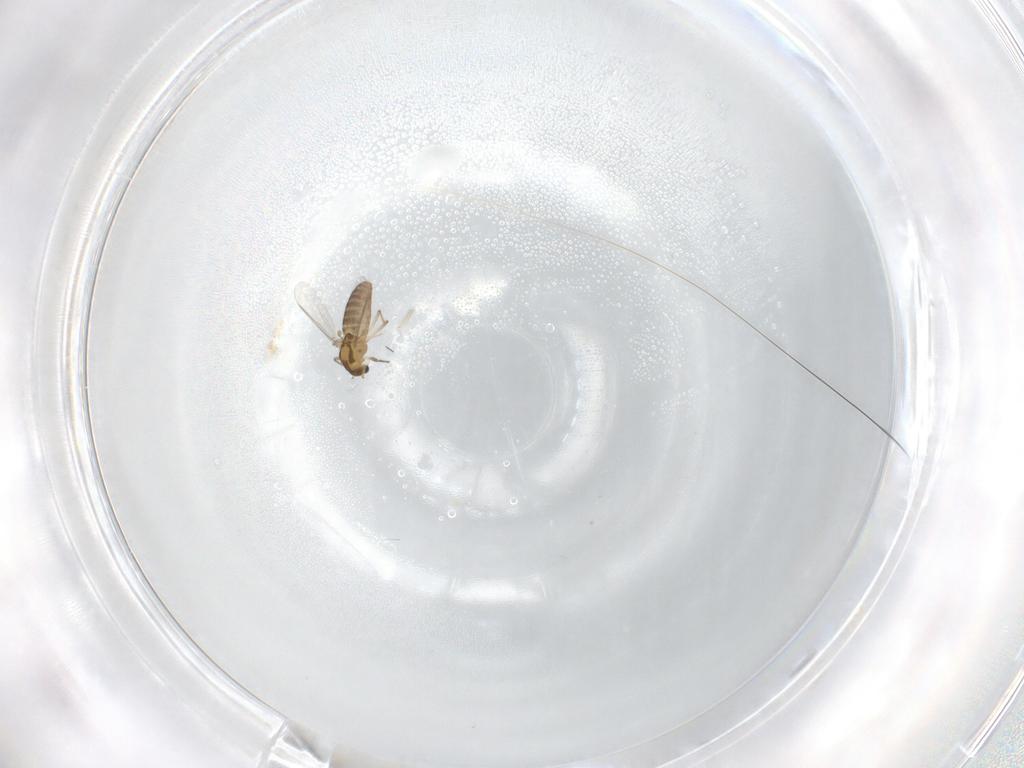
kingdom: Animalia
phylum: Arthropoda
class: Insecta
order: Diptera
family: Chironomidae
